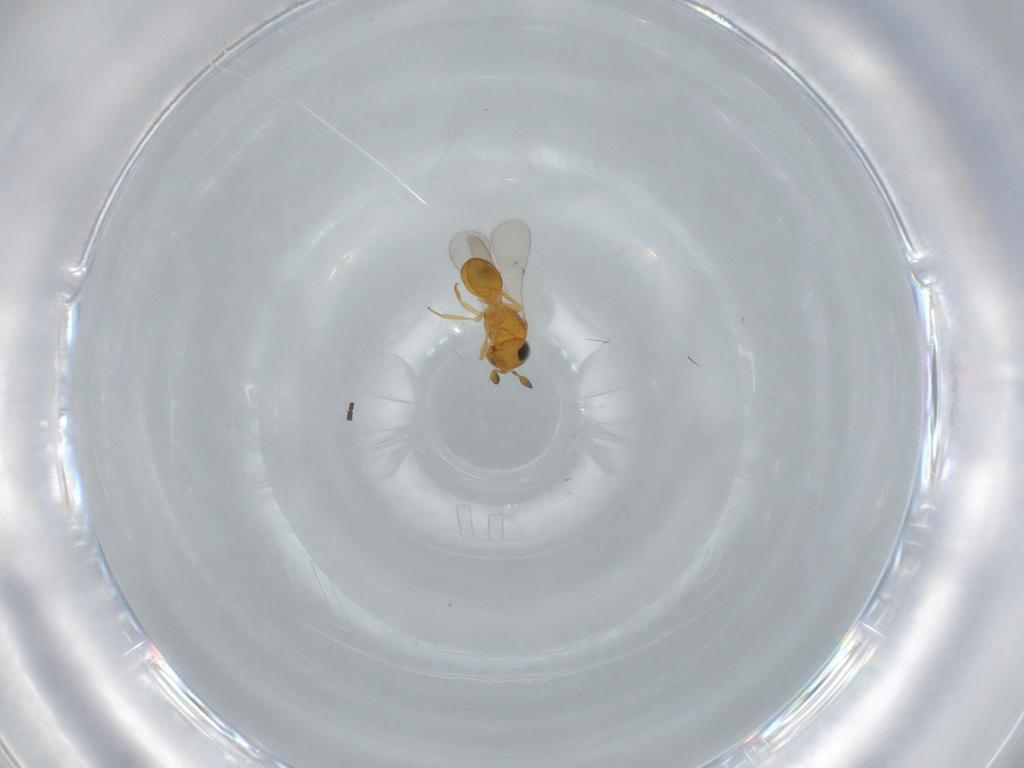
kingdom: Animalia
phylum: Arthropoda
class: Insecta
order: Hymenoptera
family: Scelionidae
